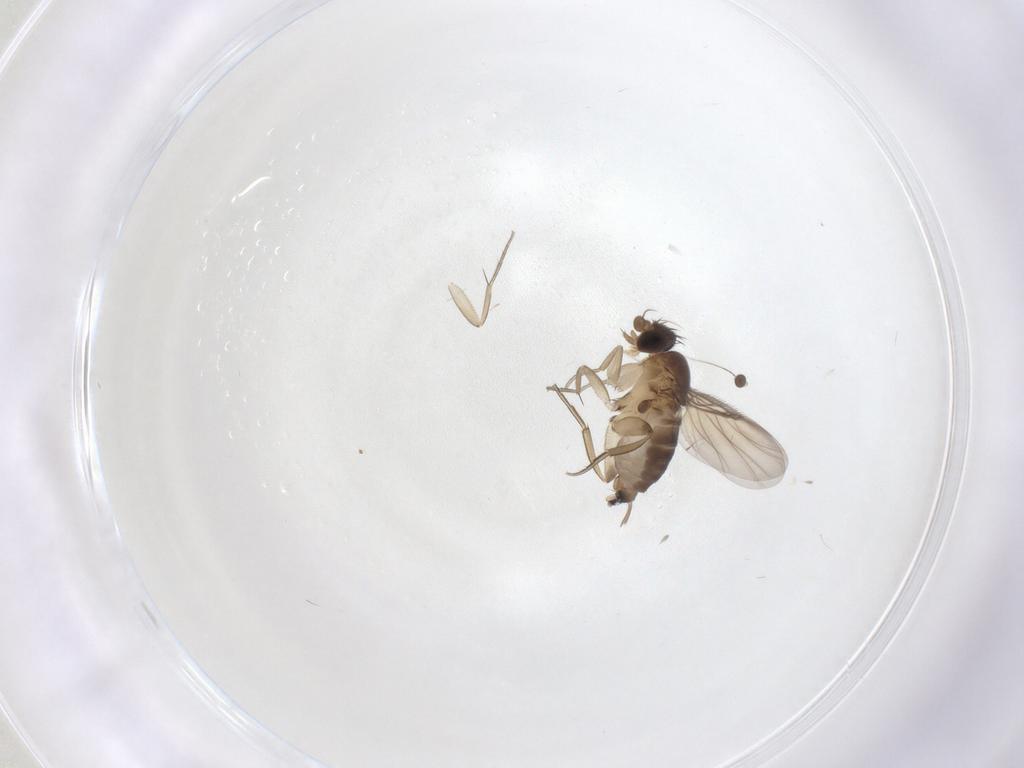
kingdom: Animalia
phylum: Arthropoda
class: Insecta
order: Diptera
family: Phoridae
